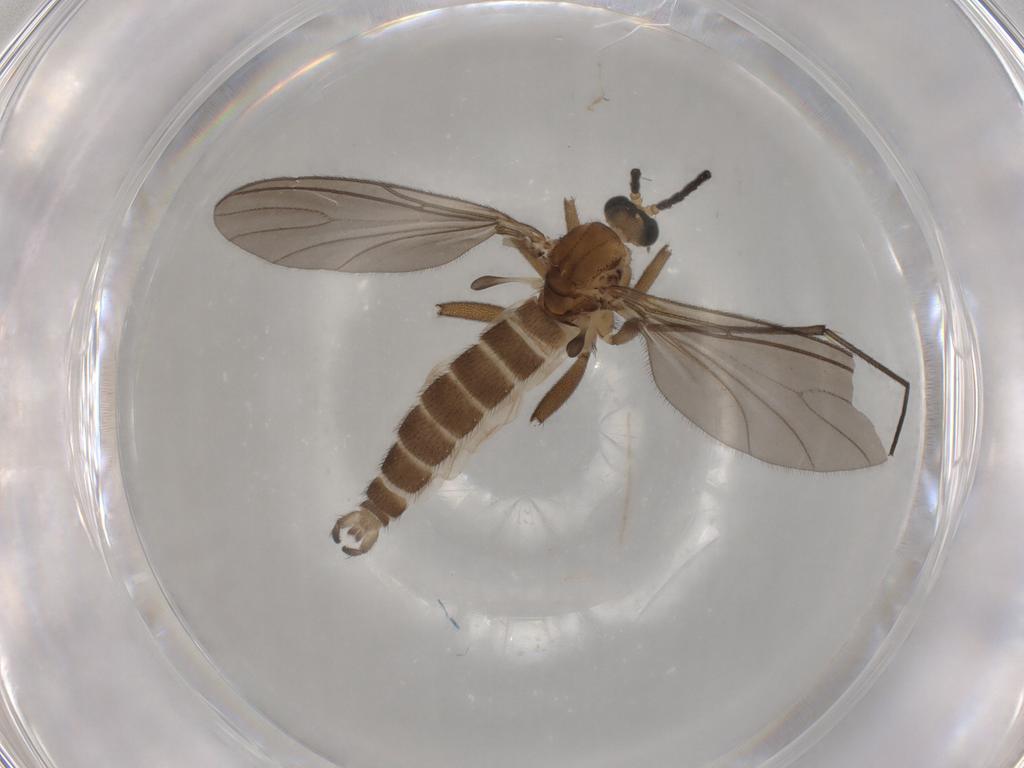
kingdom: Animalia
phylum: Arthropoda
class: Insecta
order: Diptera
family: Sciaridae
